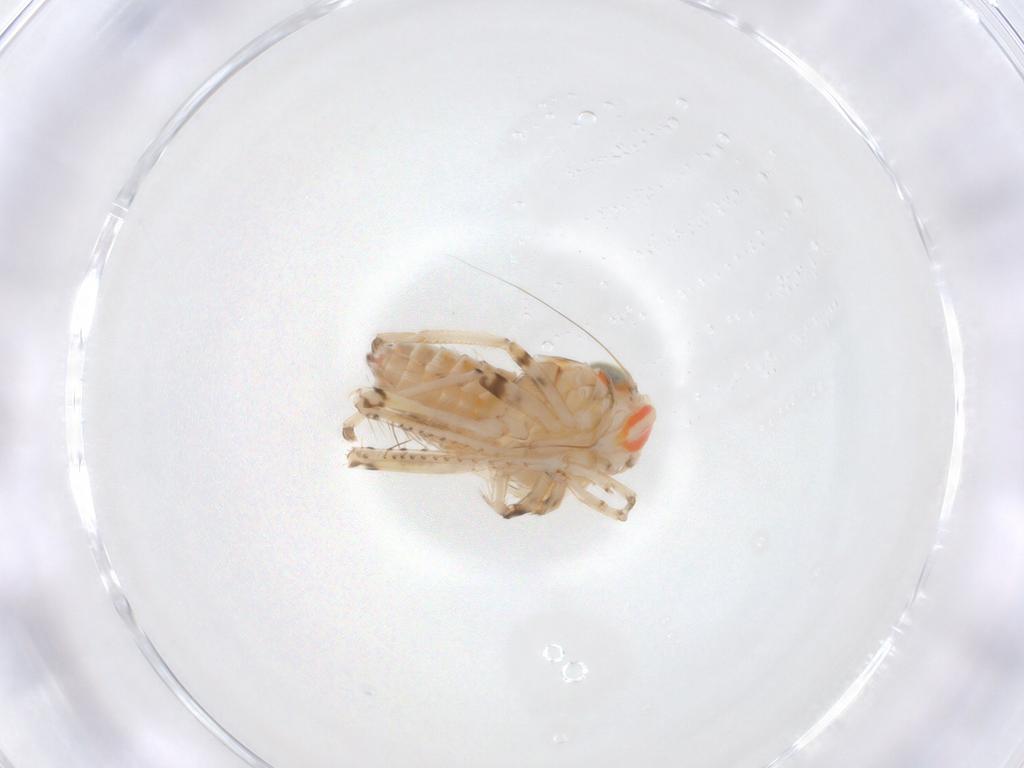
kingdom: Animalia
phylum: Arthropoda
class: Insecta
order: Hemiptera
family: Cicadellidae
